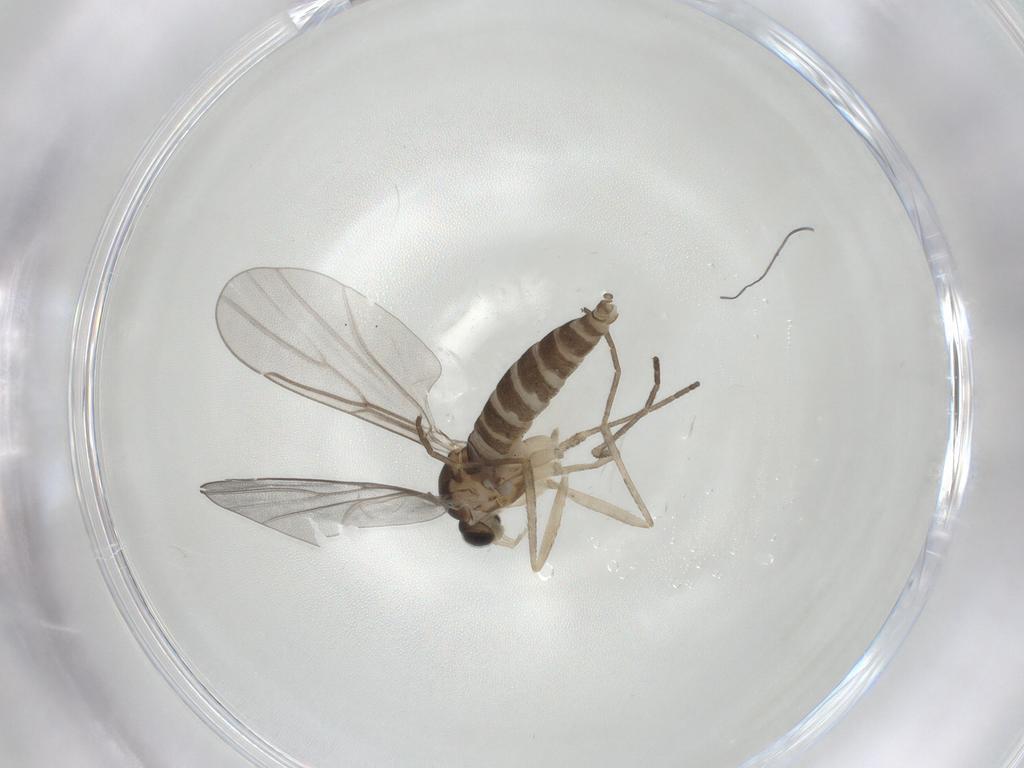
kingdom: Animalia
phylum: Arthropoda
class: Insecta
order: Diptera
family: Cecidomyiidae
